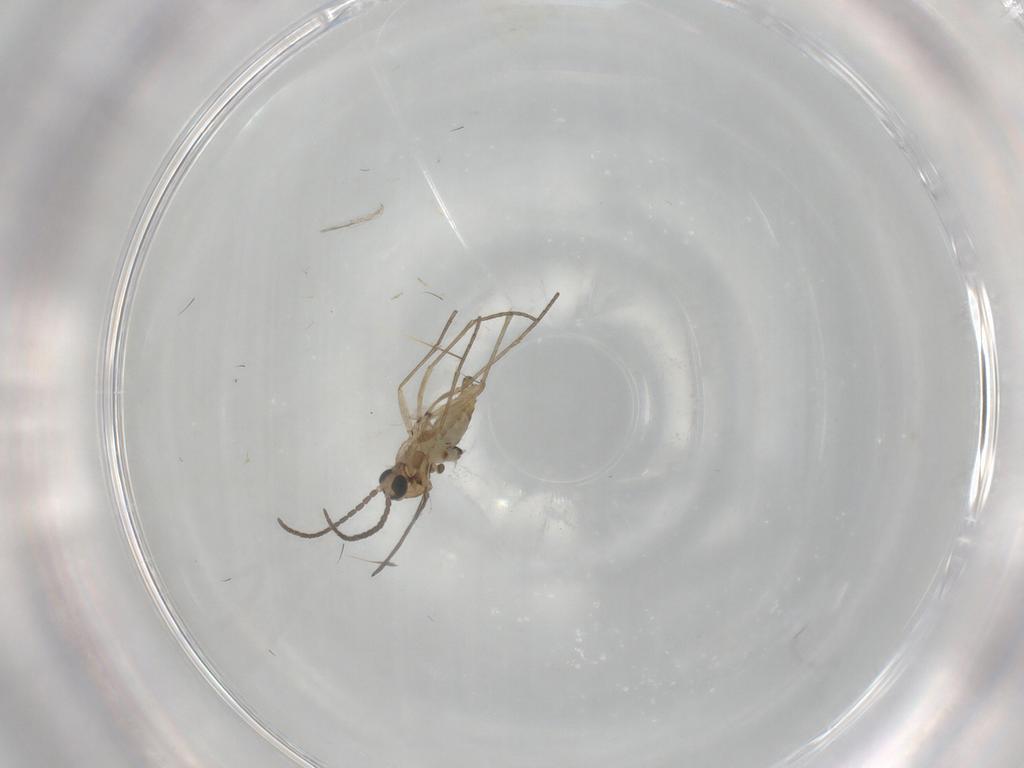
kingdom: Animalia
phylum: Arthropoda
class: Insecta
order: Diptera
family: Sciaridae
